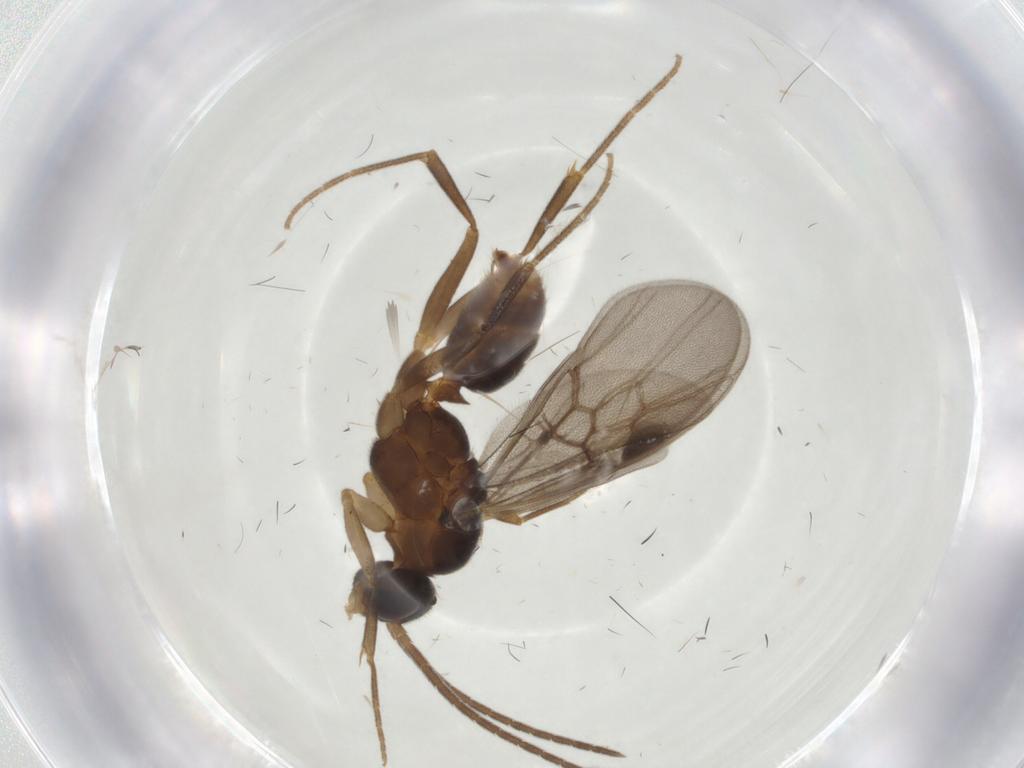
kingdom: Animalia
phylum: Arthropoda
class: Insecta
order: Hymenoptera
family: Formicidae
